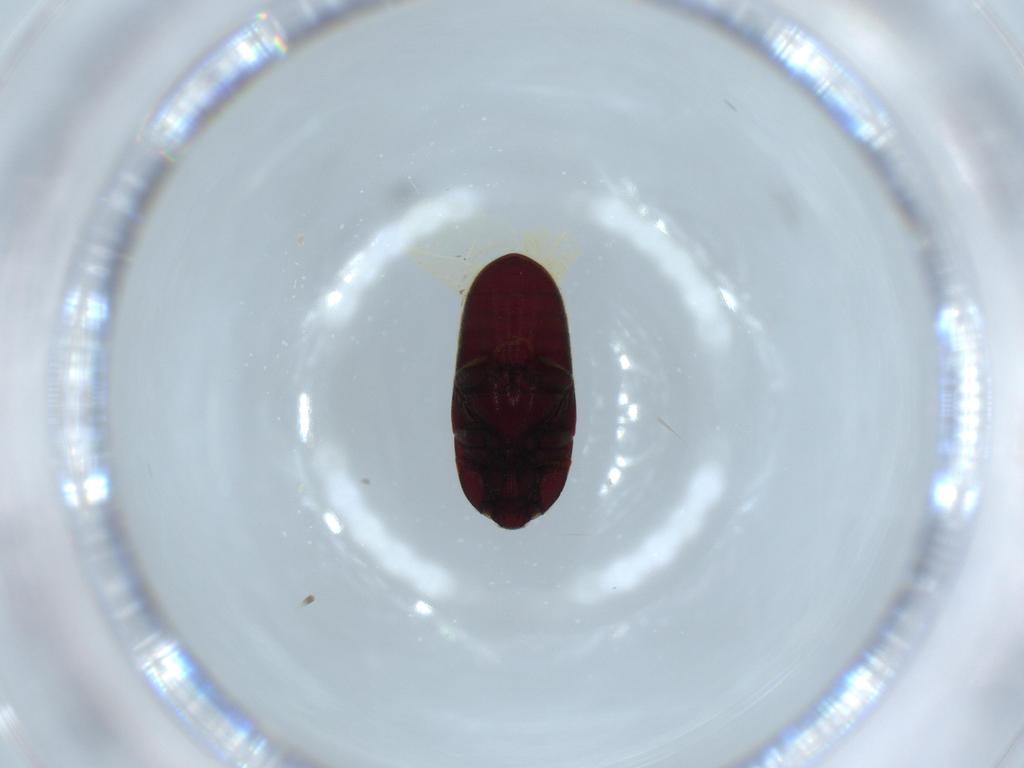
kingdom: Animalia
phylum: Arthropoda
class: Insecta
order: Coleoptera
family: Throscidae
